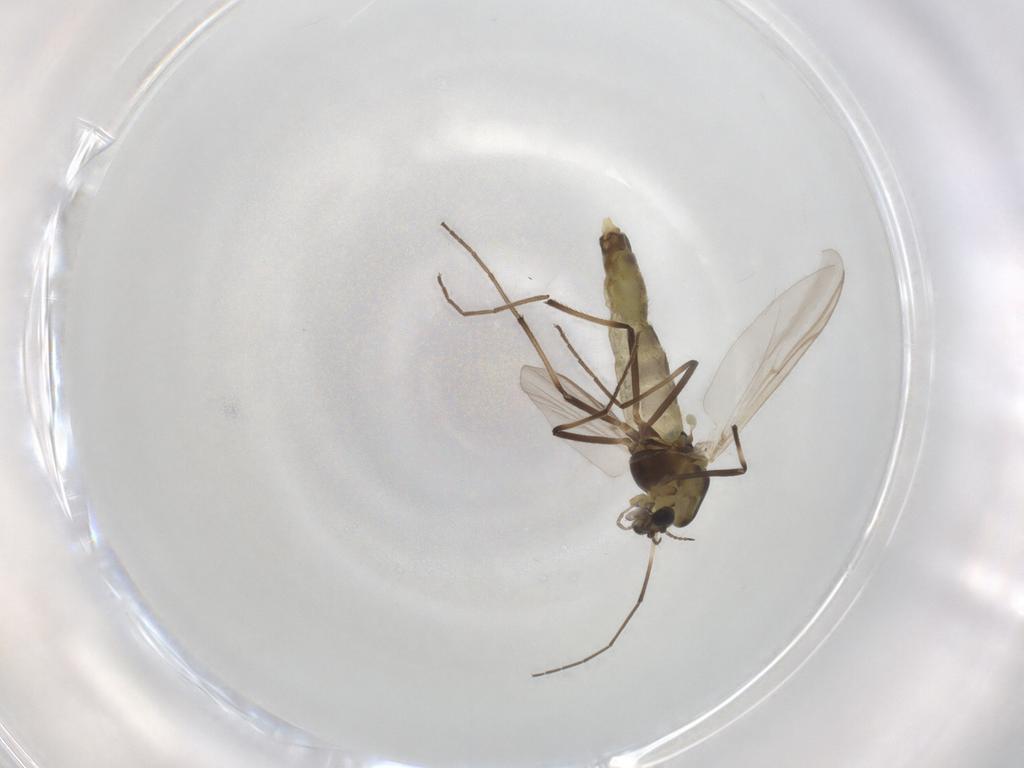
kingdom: Animalia
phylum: Arthropoda
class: Insecta
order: Diptera
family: Chironomidae
